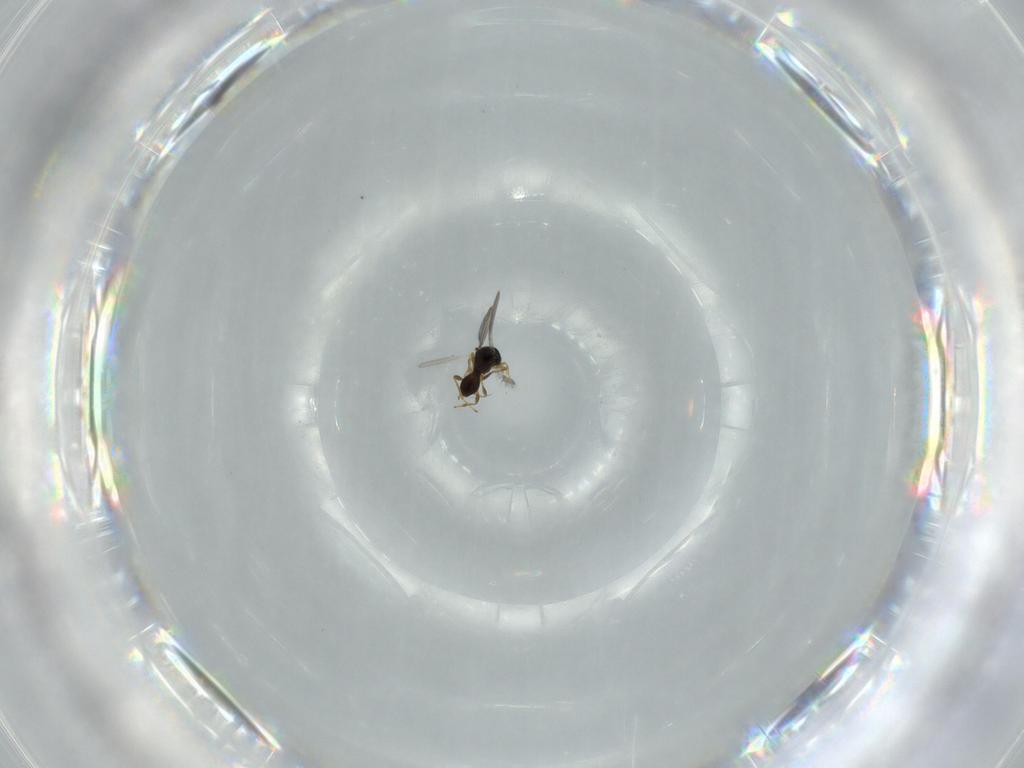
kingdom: Animalia
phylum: Arthropoda
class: Insecta
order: Hymenoptera
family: Platygastridae
